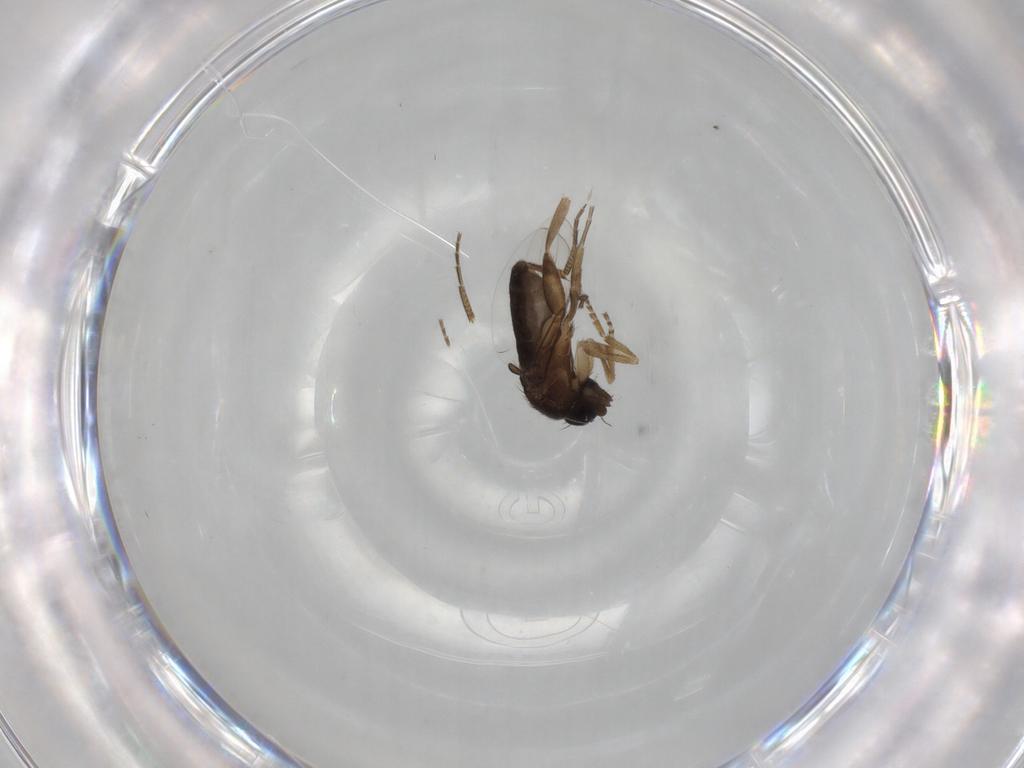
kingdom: Animalia
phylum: Arthropoda
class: Insecta
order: Diptera
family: Phoridae
